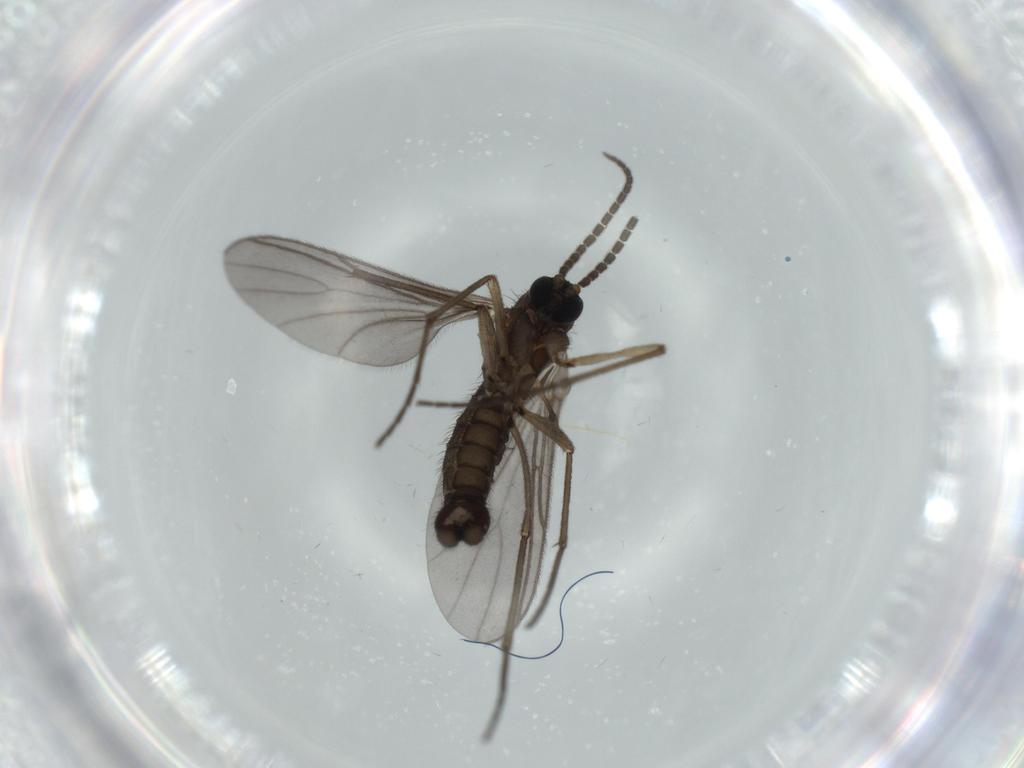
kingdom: Animalia
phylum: Arthropoda
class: Insecta
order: Diptera
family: Sciaridae
